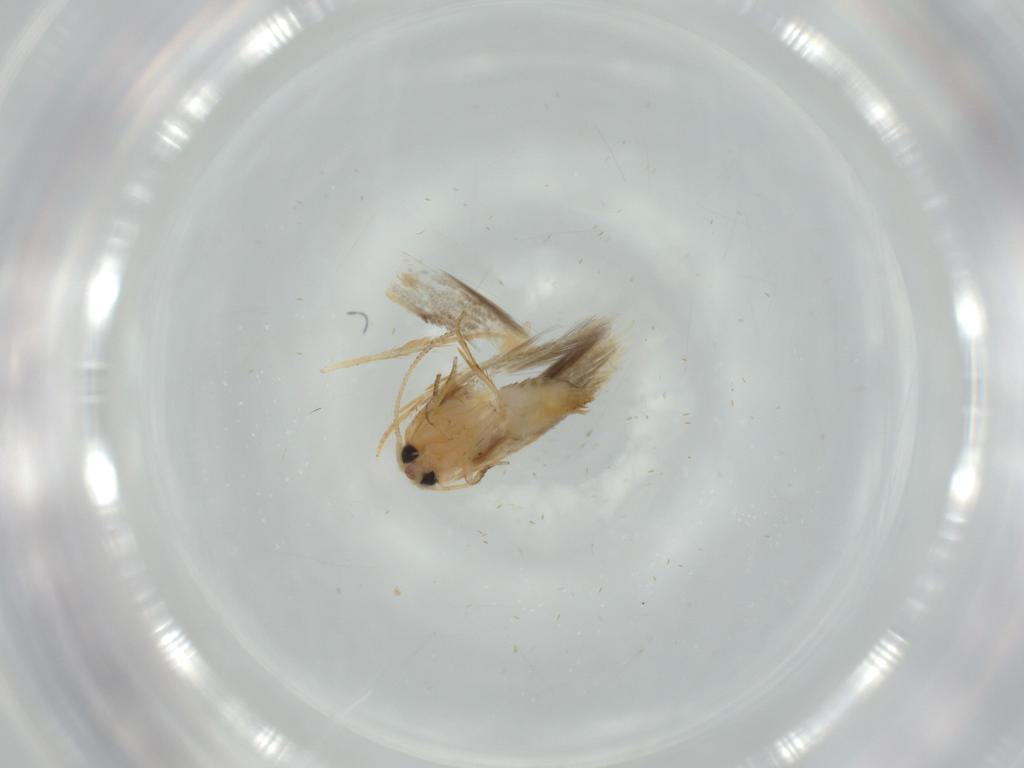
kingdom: Animalia
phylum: Arthropoda
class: Insecta
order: Lepidoptera
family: Nepticulidae
